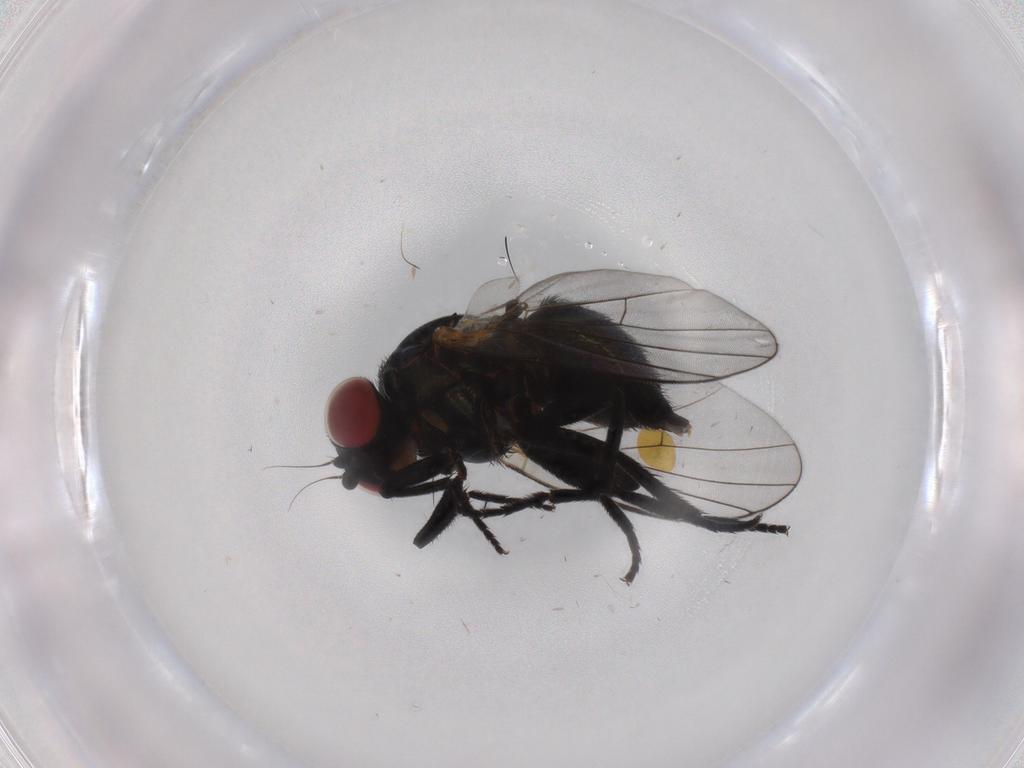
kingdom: Animalia
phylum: Arthropoda
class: Insecta
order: Diptera
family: Dolichopodidae
